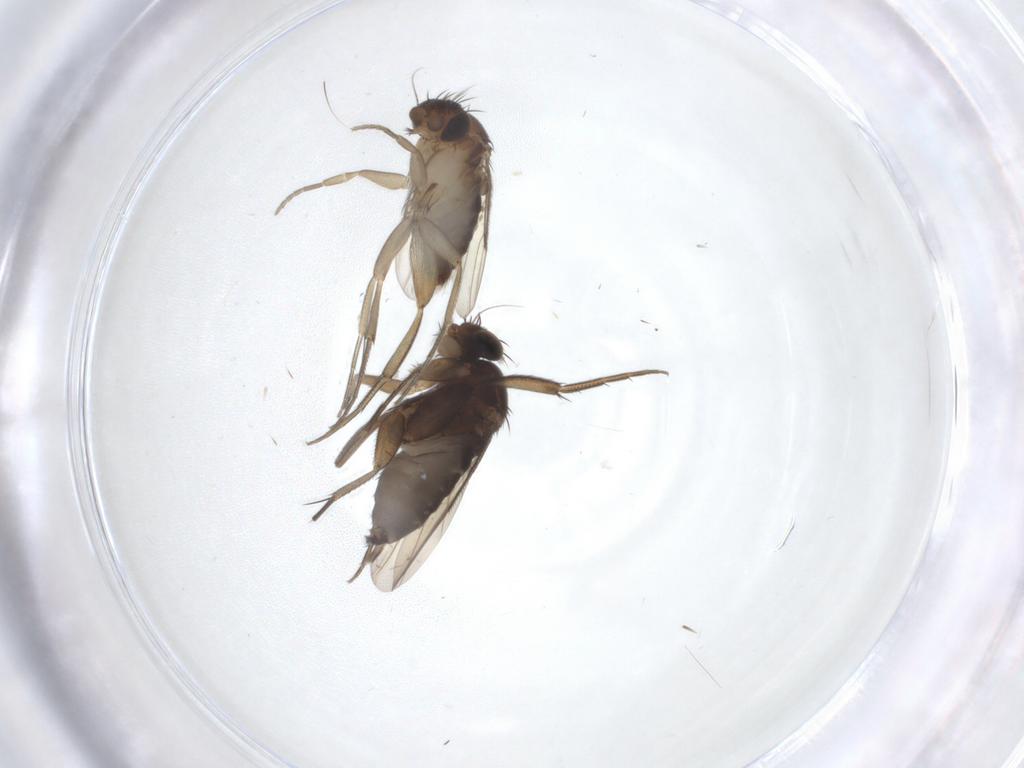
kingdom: Animalia
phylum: Arthropoda
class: Insecta
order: Diptera
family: Phoridae
